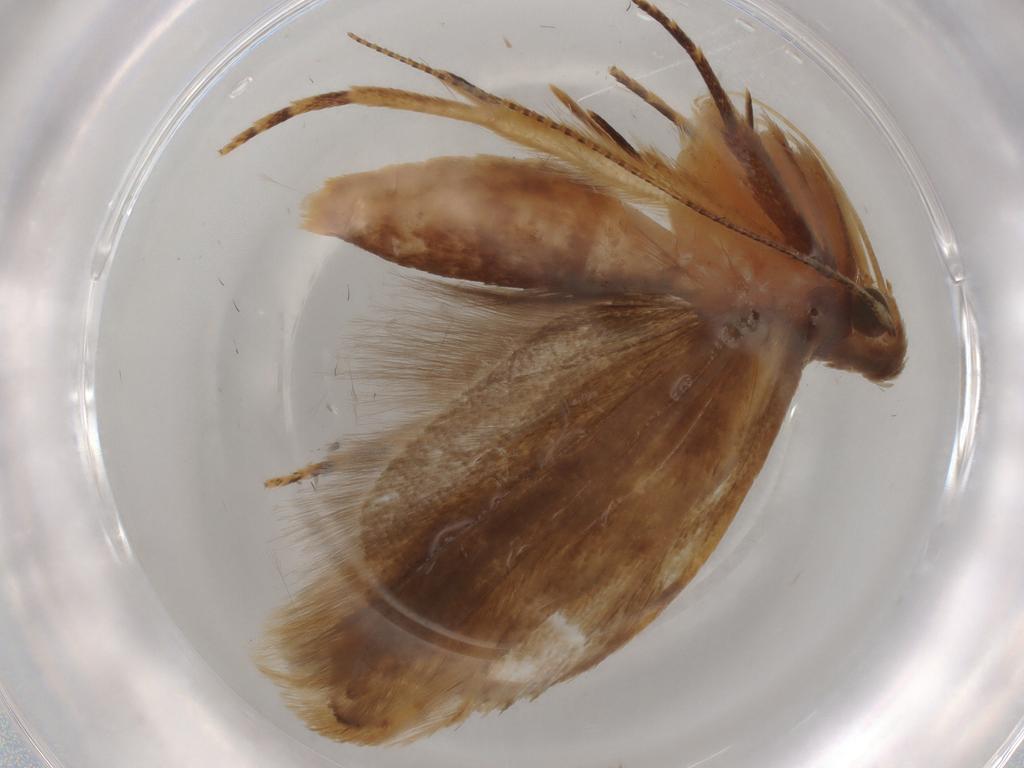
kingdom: Animalia
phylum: Arthropoda
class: Insecta
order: Lepidoptera
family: Geometridae
